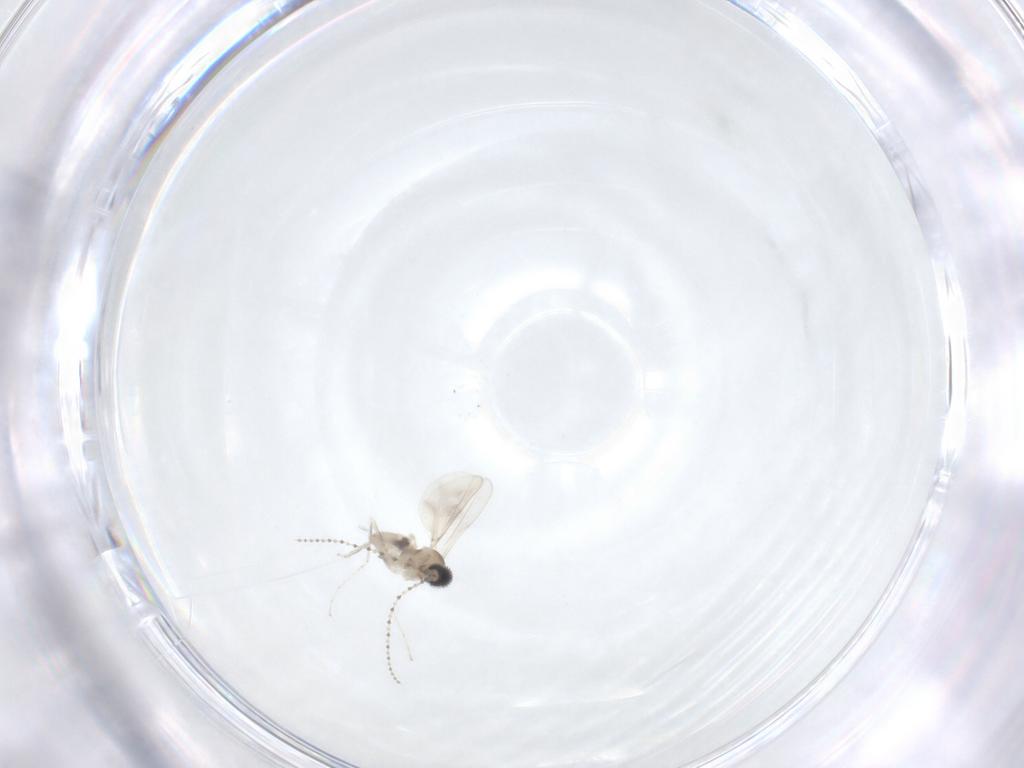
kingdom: Animalia
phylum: Arthropoda
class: Insecta
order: Diptera
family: Cecidomyiidae
